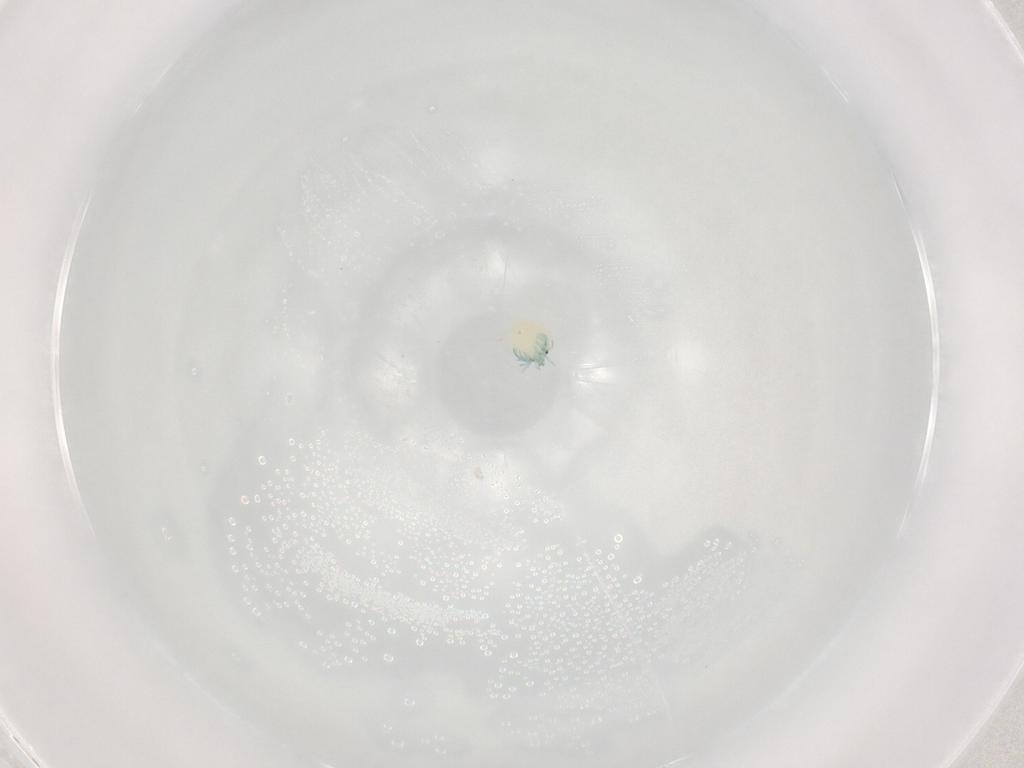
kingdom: Animalia
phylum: Arthropoda
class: Arachnida
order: Trombidiformes
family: Arrenuridae
